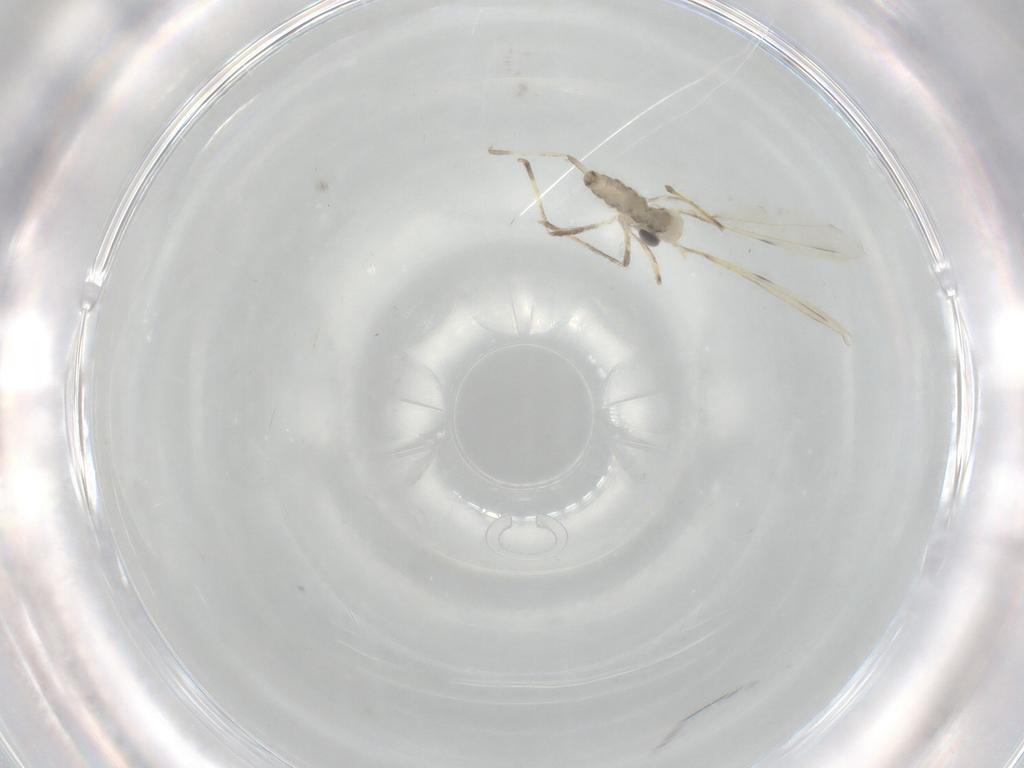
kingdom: Animalia
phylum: Arthropoda
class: Insecta
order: Diptera
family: Cecidomyiidae
